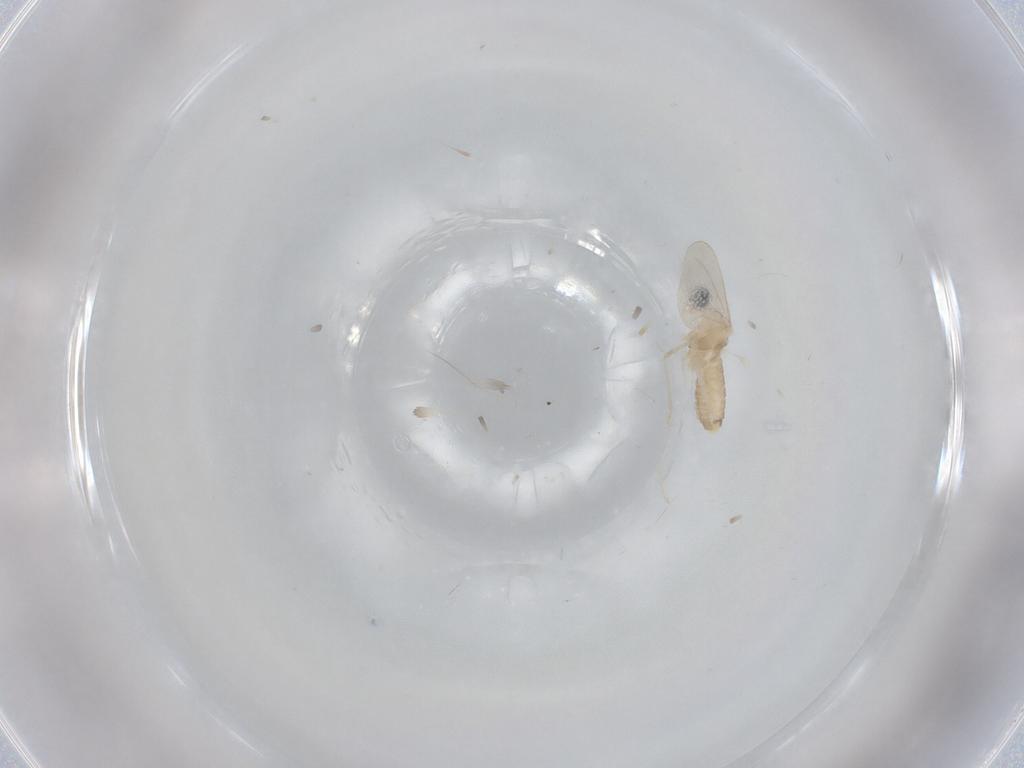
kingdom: Animalia
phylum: Arthropoda
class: Insecta
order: Diptera
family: Cecidomyiidae
